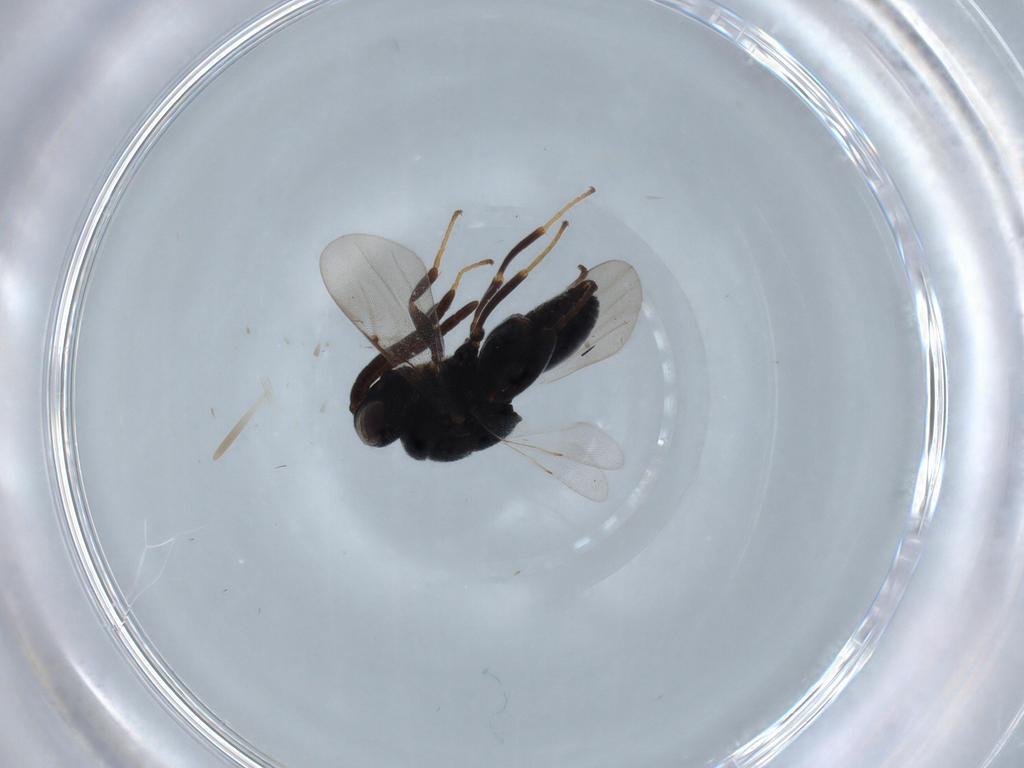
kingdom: Animalia
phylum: Arthropoda
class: Insecta
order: Hymenoptera
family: Chalcididae
